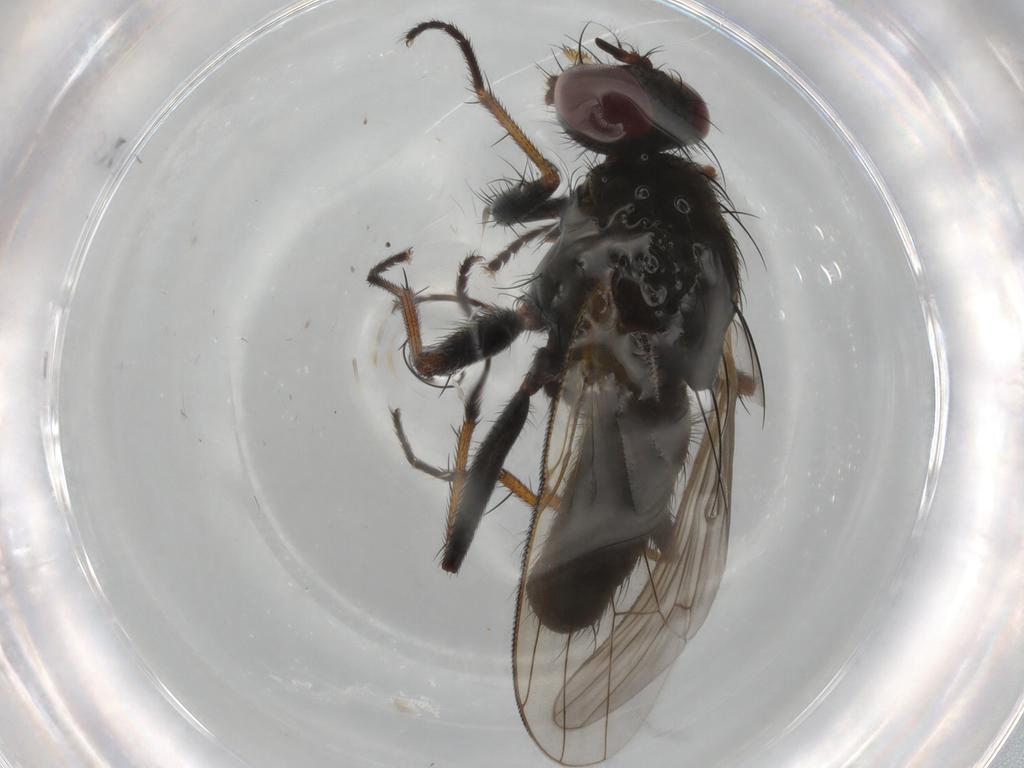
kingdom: Animalia
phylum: Arthropoda
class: Insecta
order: Diptera
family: Muscidae
